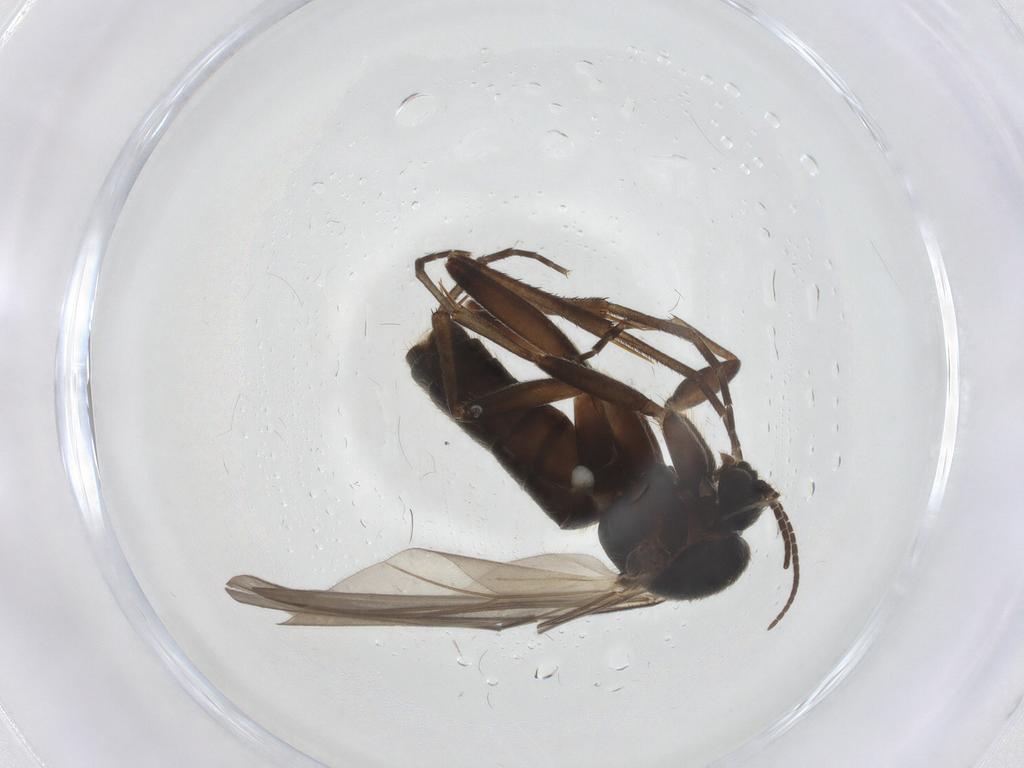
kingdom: Animalia
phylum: Arthropoda
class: Insecta
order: Diptera
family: Mycetophilidae
